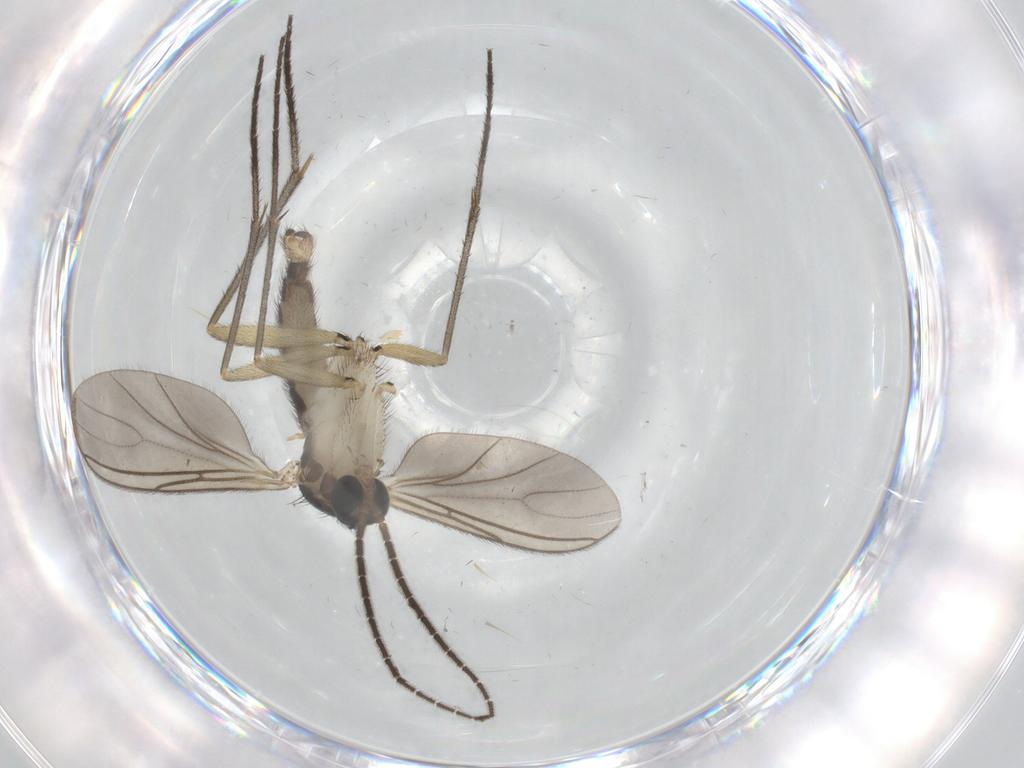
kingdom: Animalia
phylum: Arthropoda
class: Insecta
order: Diptera
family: Sciaridae
